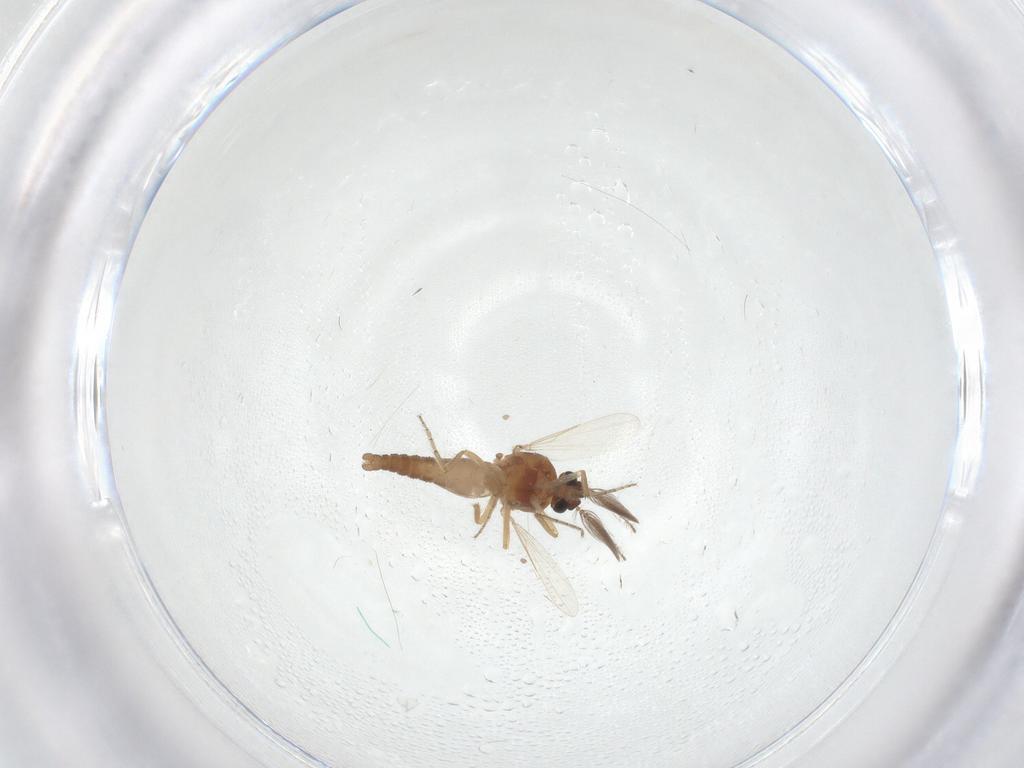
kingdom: Animalia
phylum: Arthropoda
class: Insecta
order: Diptera
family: Ceratopogonidae
